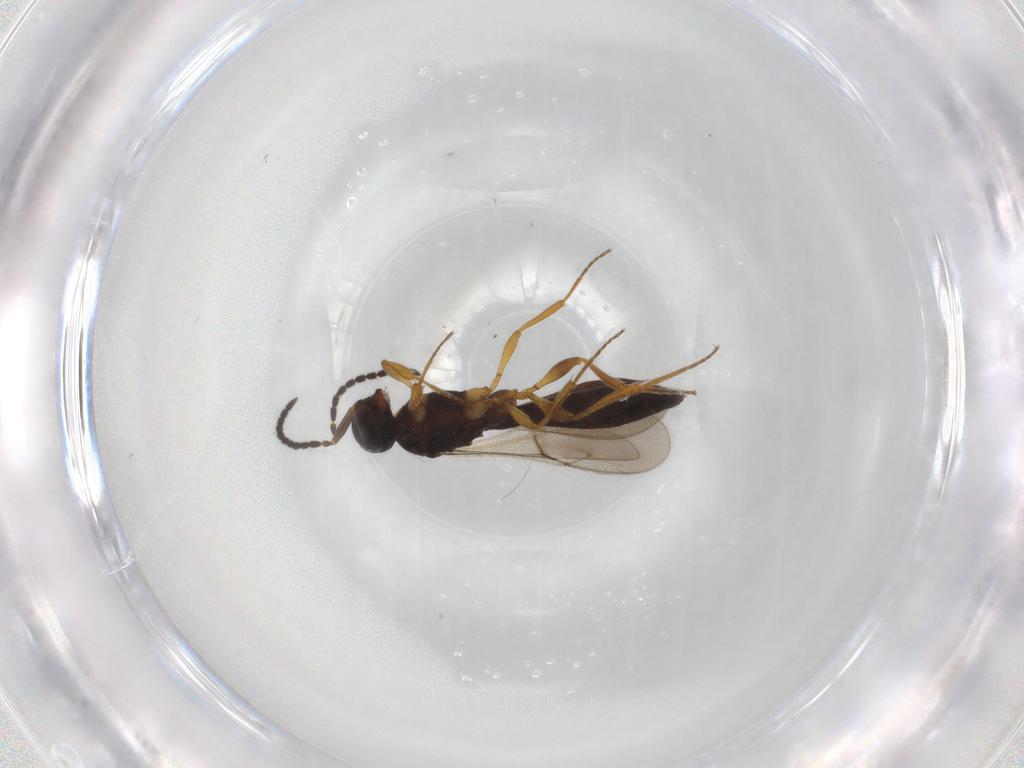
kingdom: Animalia
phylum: Arthropoda
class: Insecta
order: Hymenoptera
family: Scelionidae
